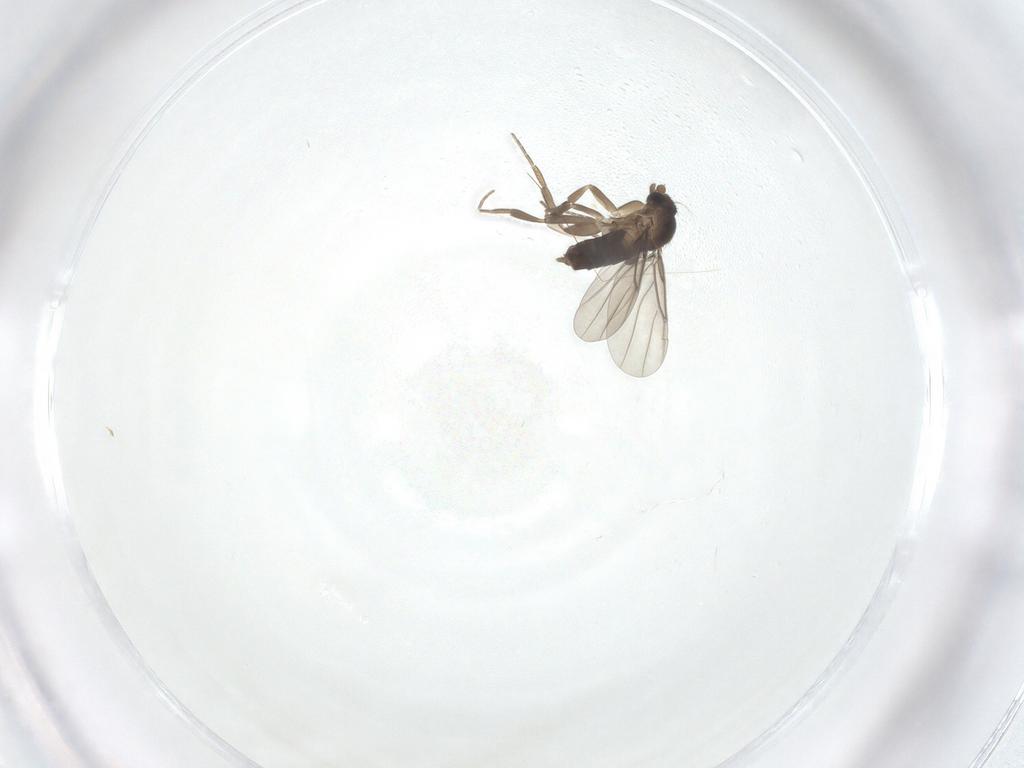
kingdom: Animalia
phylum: Arthropoda
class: Insecta
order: Diptera
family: Phoridae
